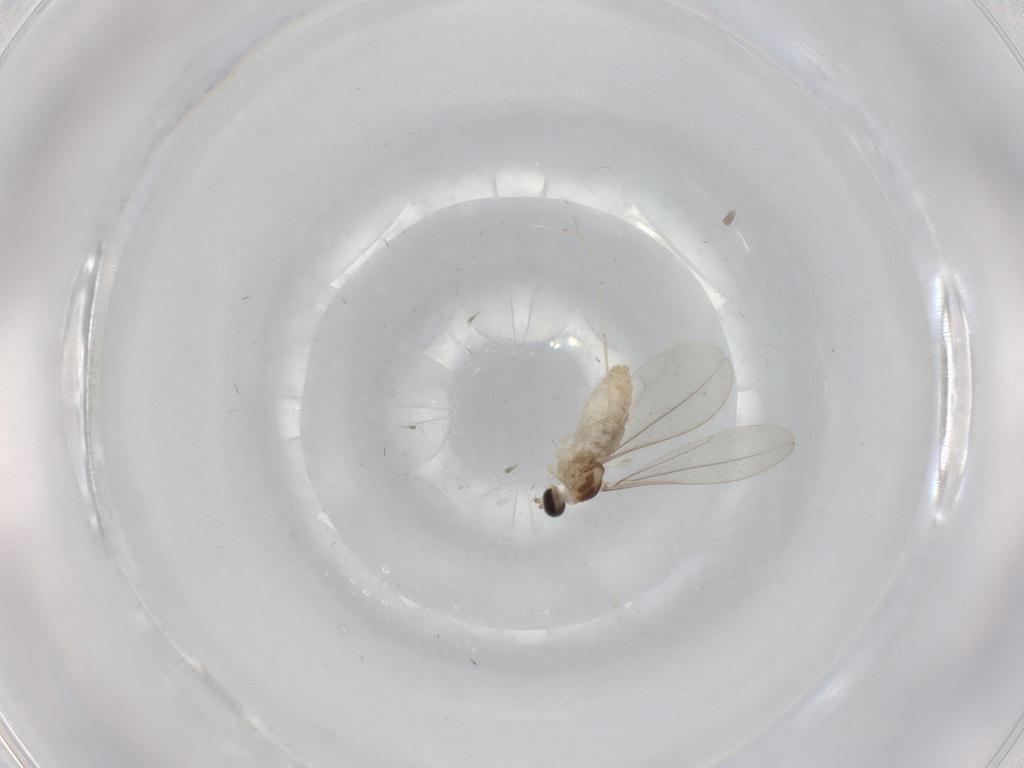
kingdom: Animalia
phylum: Arthropoda
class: Insecta
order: Diptera
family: Cecidomyiidae
